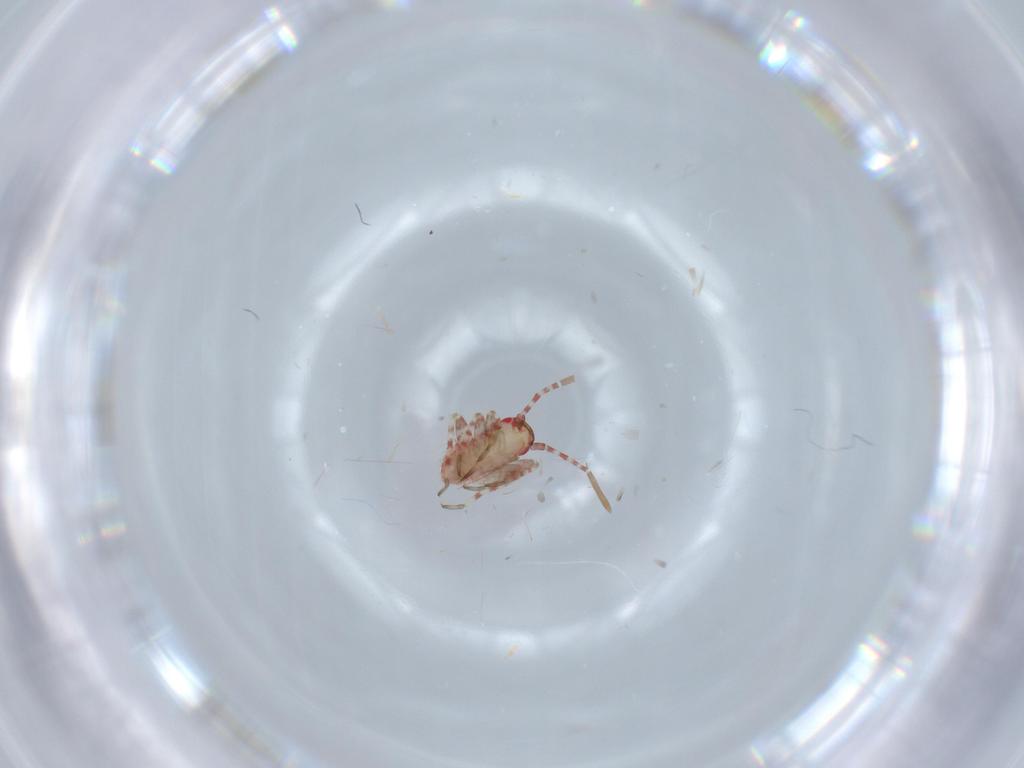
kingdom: Animalia
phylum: Arthropoda
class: Insecta
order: Hemiptera
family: Miridae
